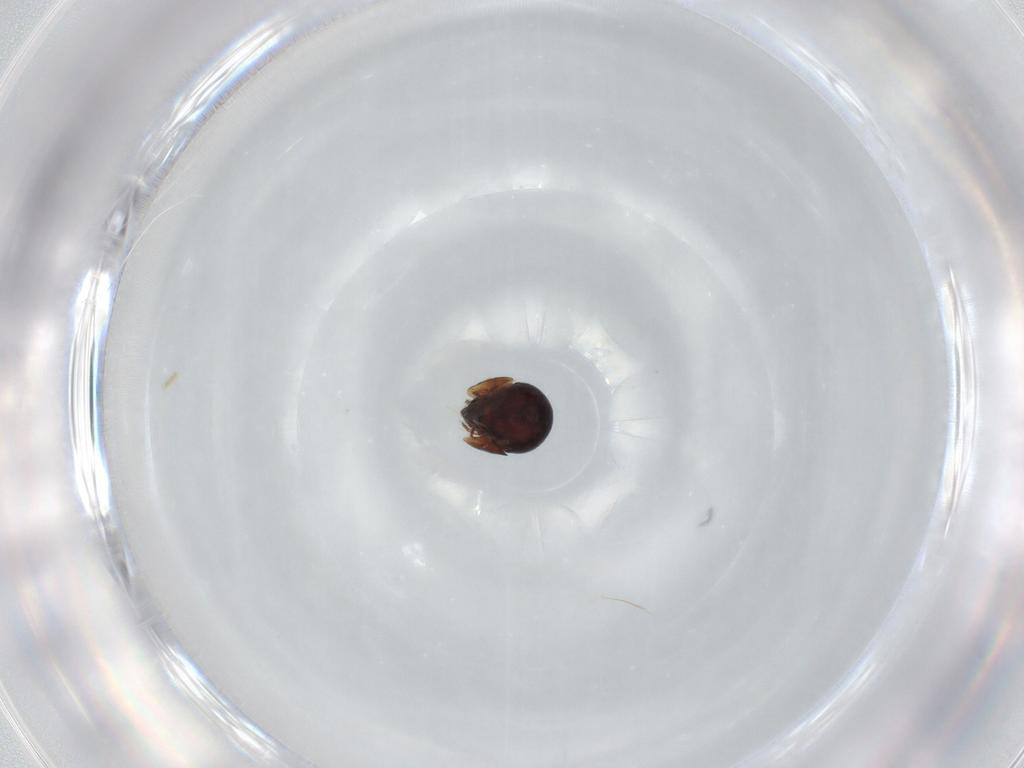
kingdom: Animalia
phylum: Arthropoda
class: Arachnida
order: Sarcoptiformes
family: Ceratozetidae
